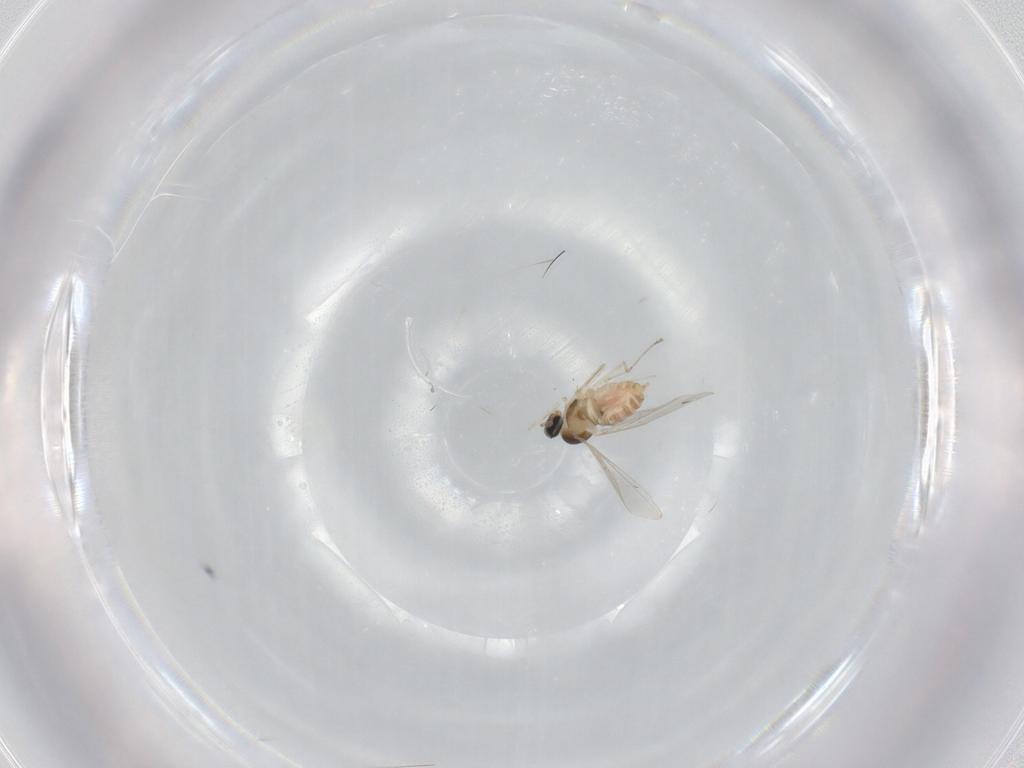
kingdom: Animalia
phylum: Arthropoda
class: Insecta
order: Diptera
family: Cecidomyiidae
